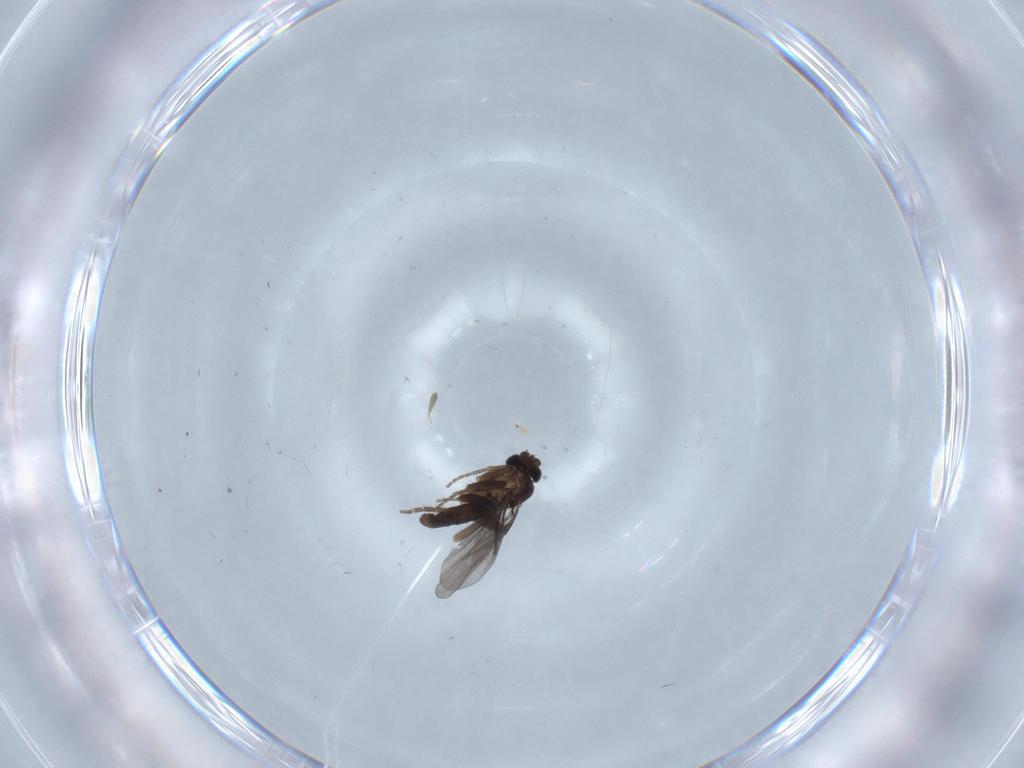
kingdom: Animalia
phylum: Arthropoda
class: Insecta
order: Diptera
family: Phoridae
